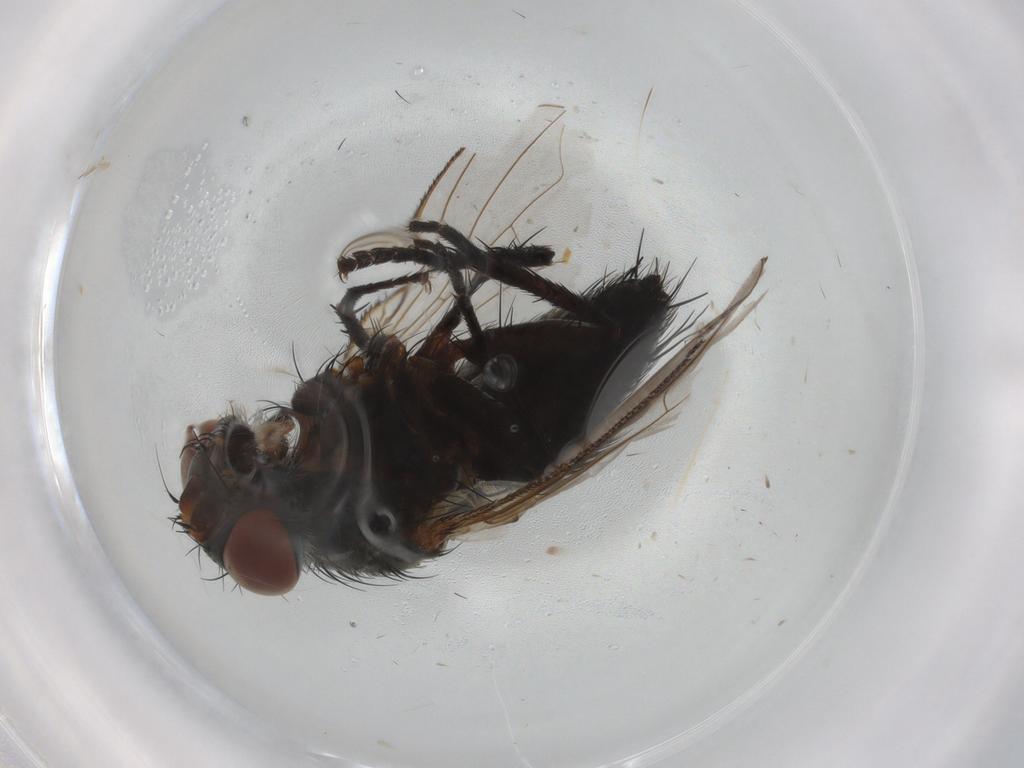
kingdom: Animalia
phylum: Arthropoda
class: Insecta
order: Diptera
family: Tachinidae
